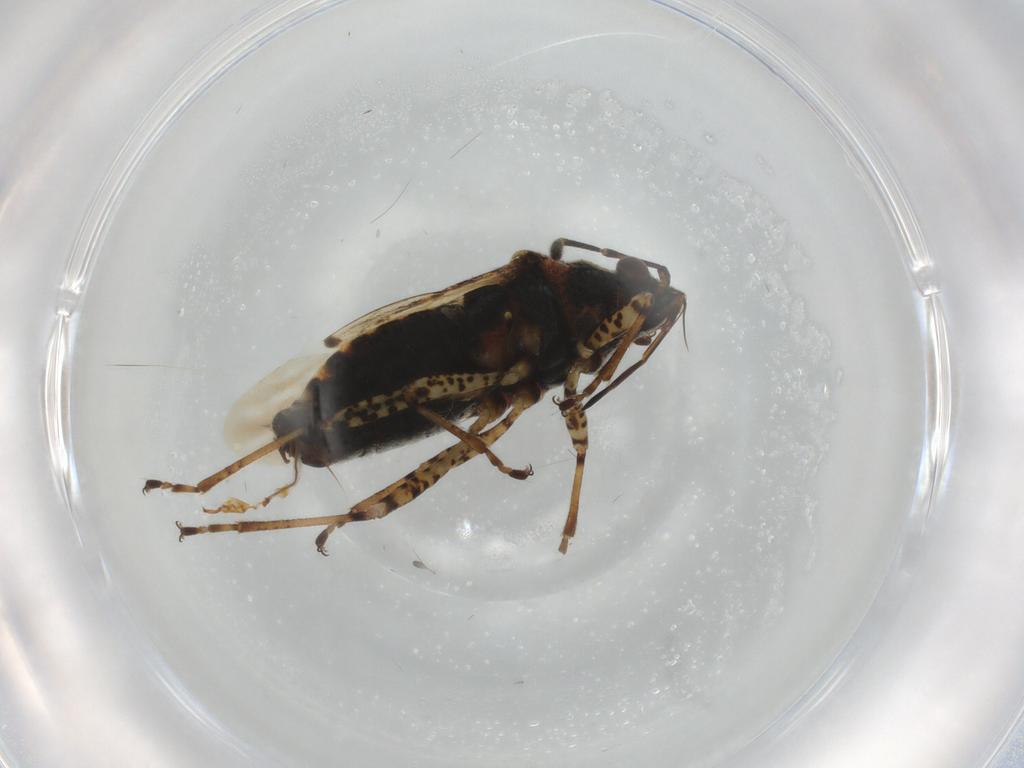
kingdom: Animalia
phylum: Arthropoda
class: Insecta
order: Hemiptera
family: Lygaeidae
